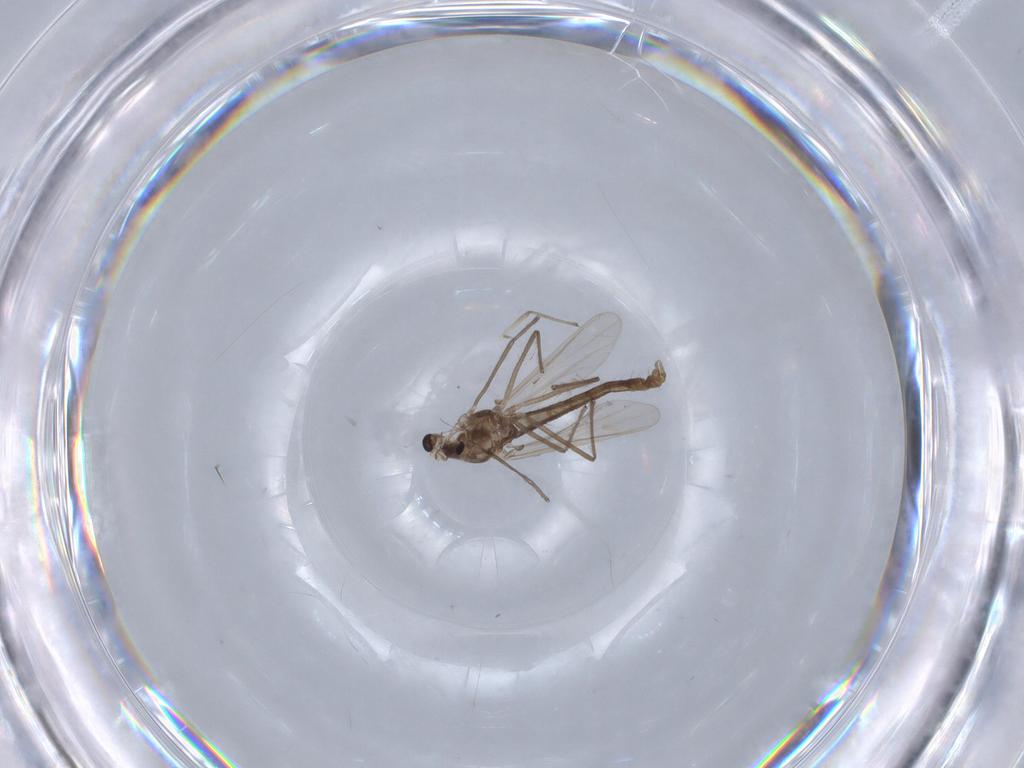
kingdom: Animalia
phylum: Arthropoda
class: Insecta
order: Diptera
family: Chironomidae
